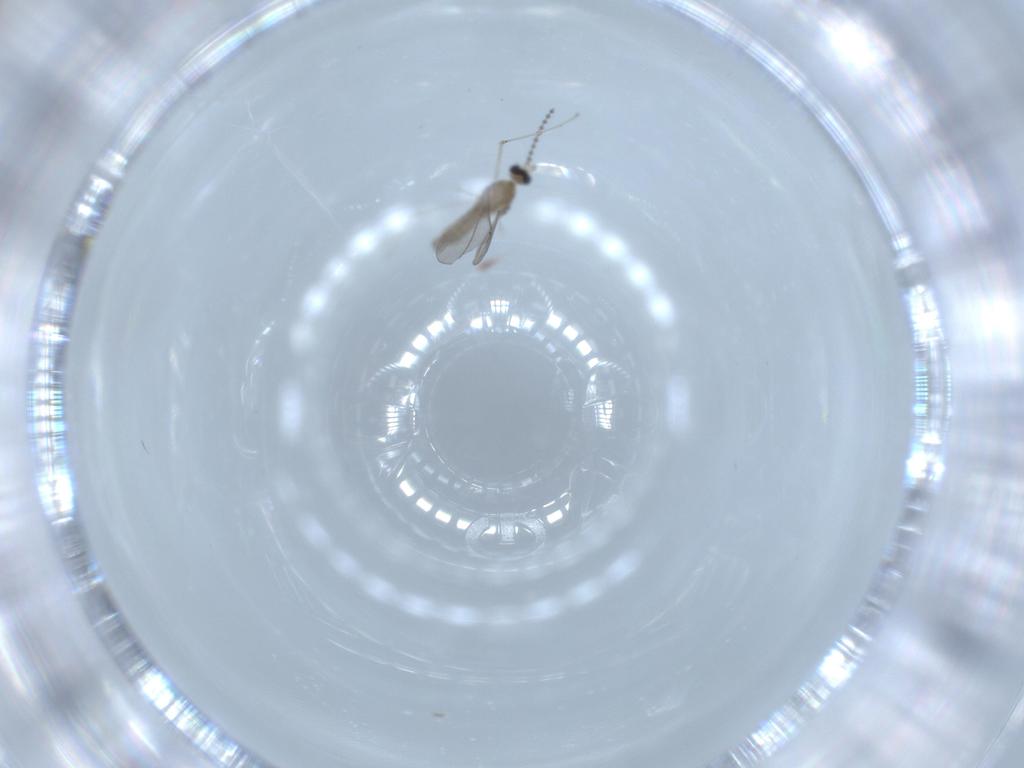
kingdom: Animalia
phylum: Arthropoda
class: Insecta
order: Diptera
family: Cecidomyiidae
